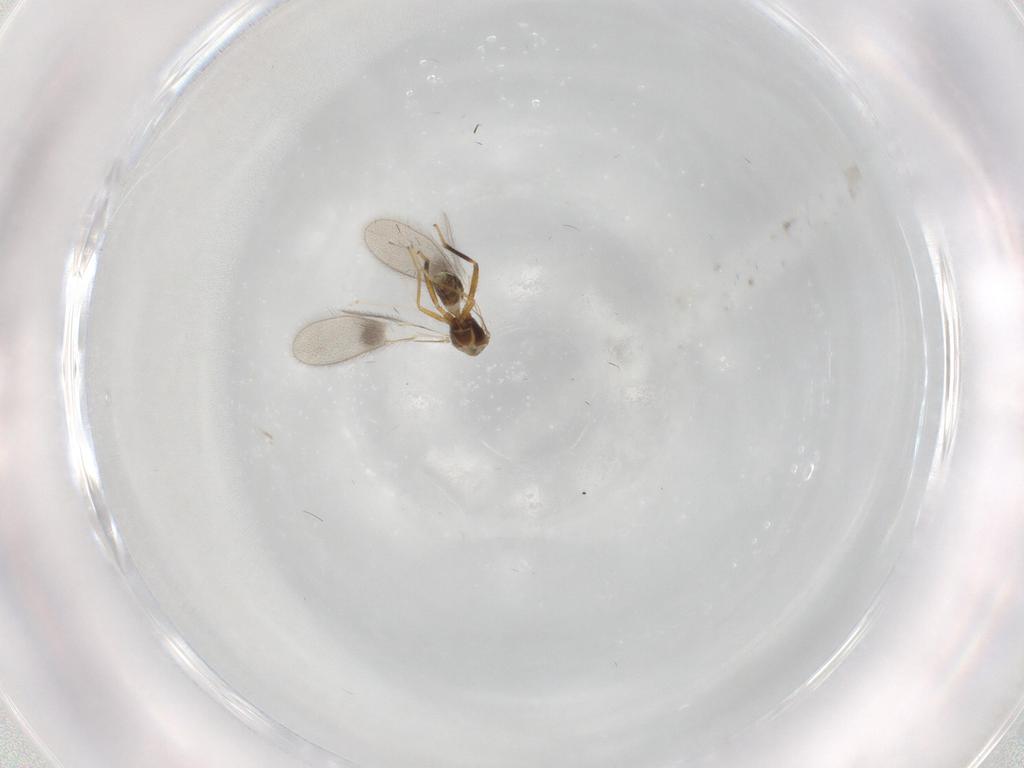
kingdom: Animalia
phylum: Arthropoda
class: Insecta
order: Hymenoptera
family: Mymaridae
